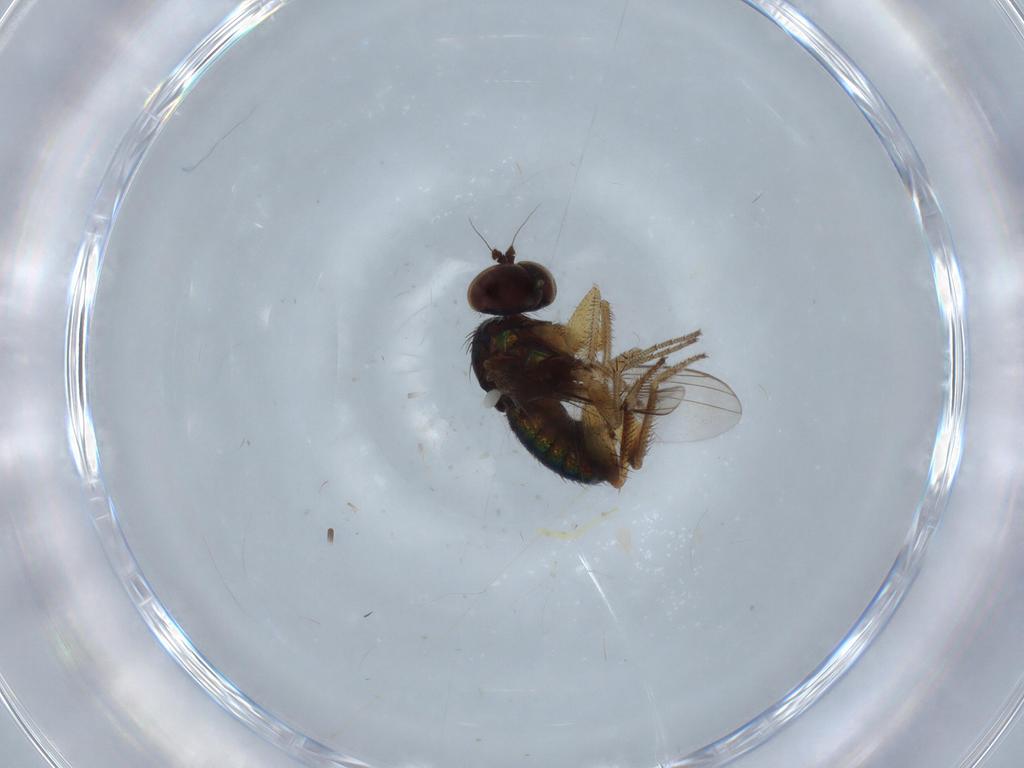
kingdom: Animalia
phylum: Arthropoda
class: Insecta
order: Diptera
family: Dolichopodidae
